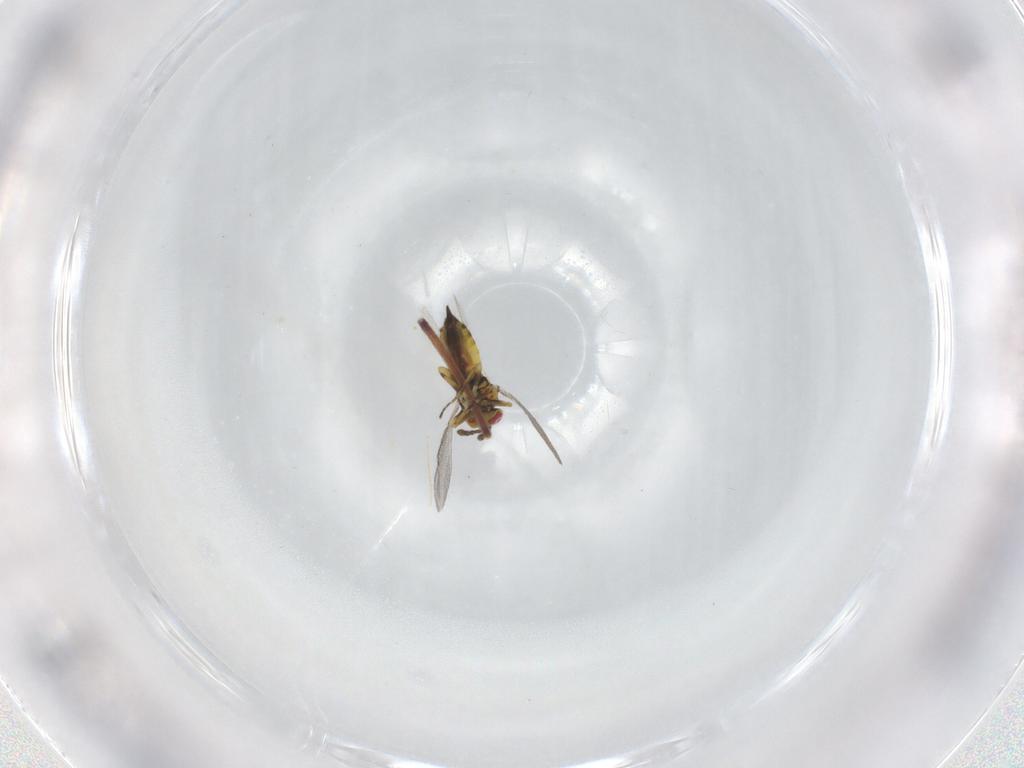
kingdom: Animalia
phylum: Arthropoda
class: Insecta
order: Hymenoptera
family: Eulophidae
